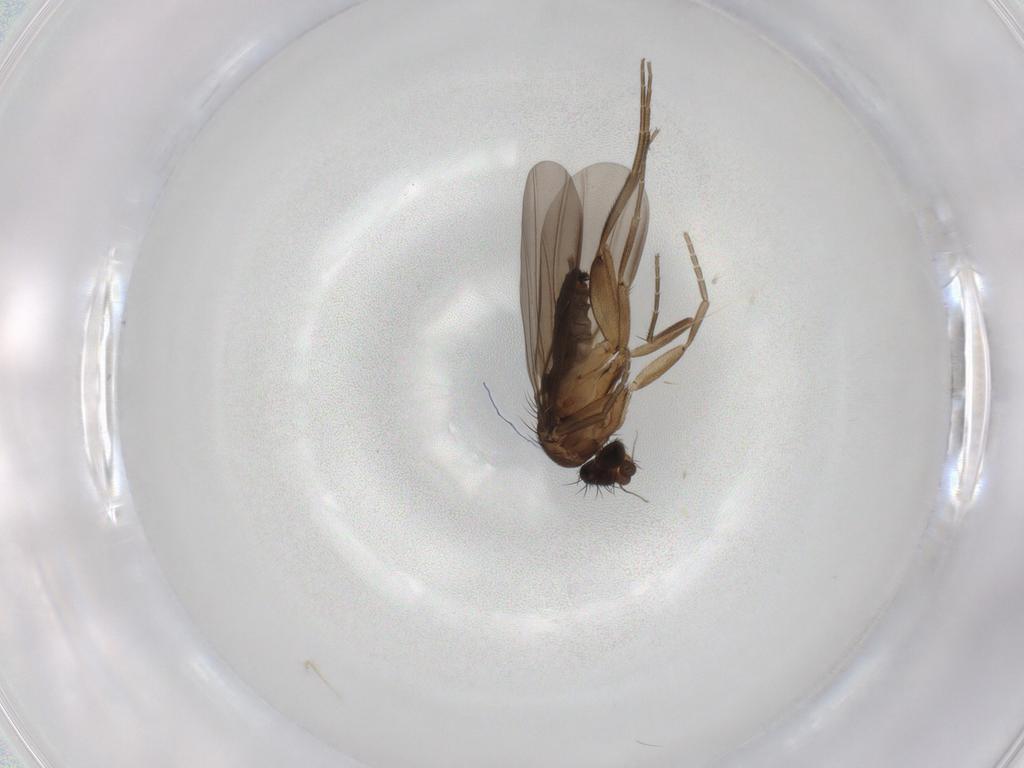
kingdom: Animalia
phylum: Arthropoda
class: Insecta
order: Diptera
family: Phoridae
